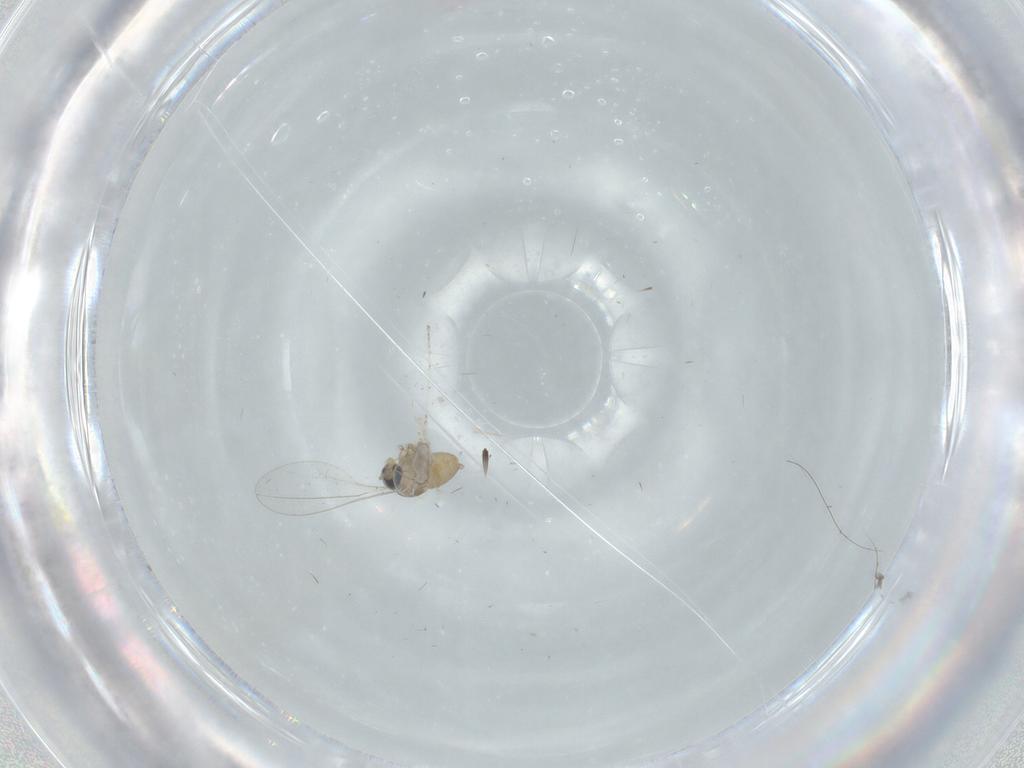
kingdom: Animalia
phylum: Arthropoda
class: Insecta
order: Diptera
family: Cecidomyiidae
